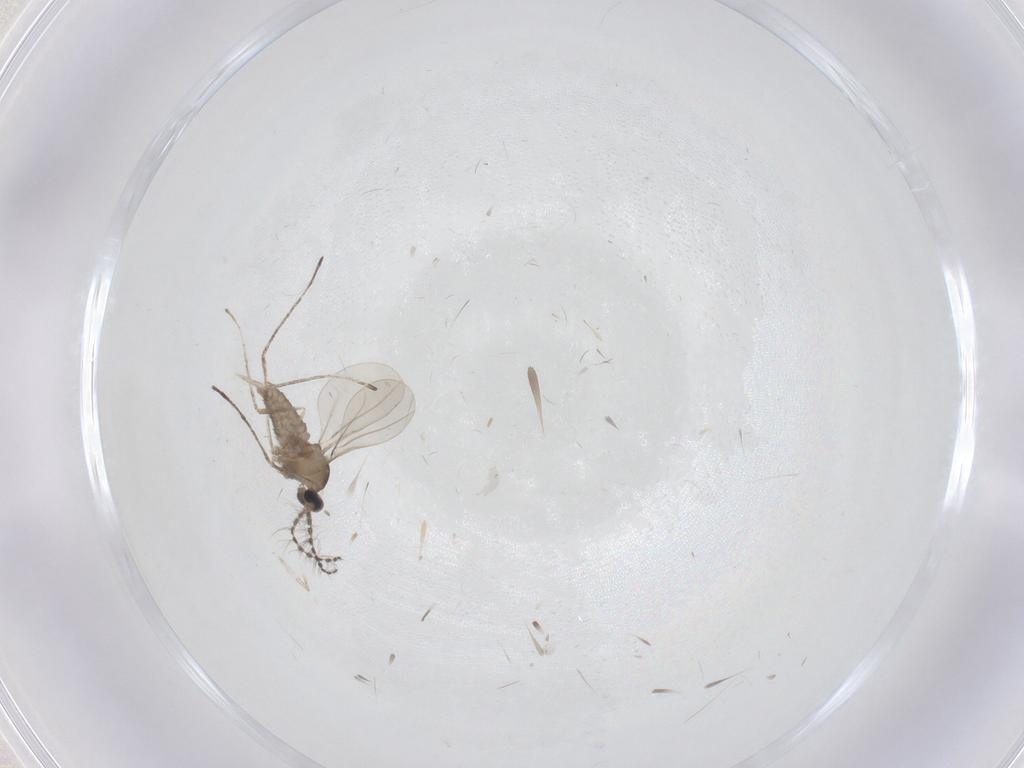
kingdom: Animalia
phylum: Arthropoda
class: Insecta
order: Diptera
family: Cecidomyiidae
